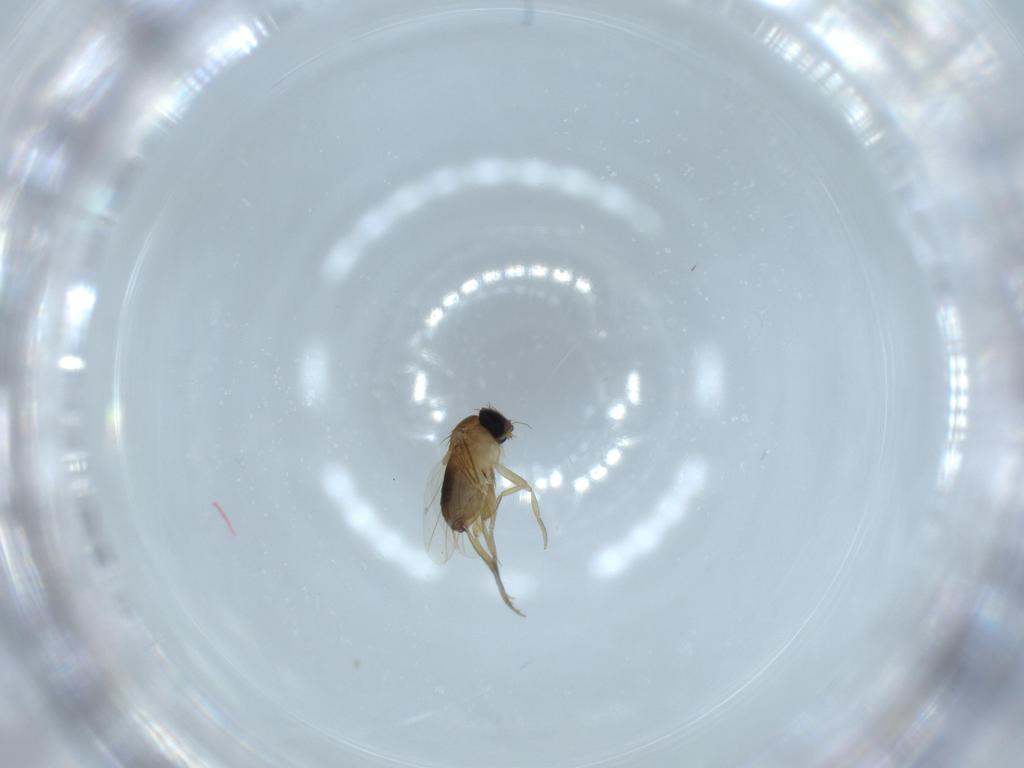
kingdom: Animalia
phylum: Arthropoda
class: Insecta
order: Diptera
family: Phoridae
